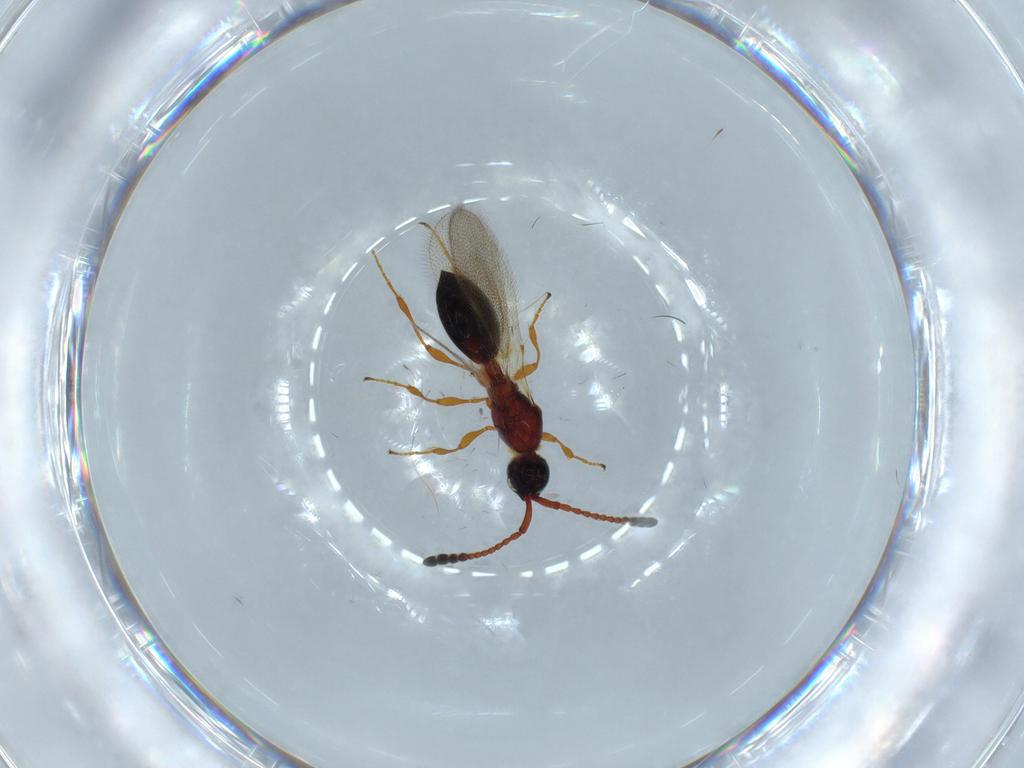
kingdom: Animalia
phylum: Arthropoda
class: Insecta
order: Hymenoptera
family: Diapriidae
